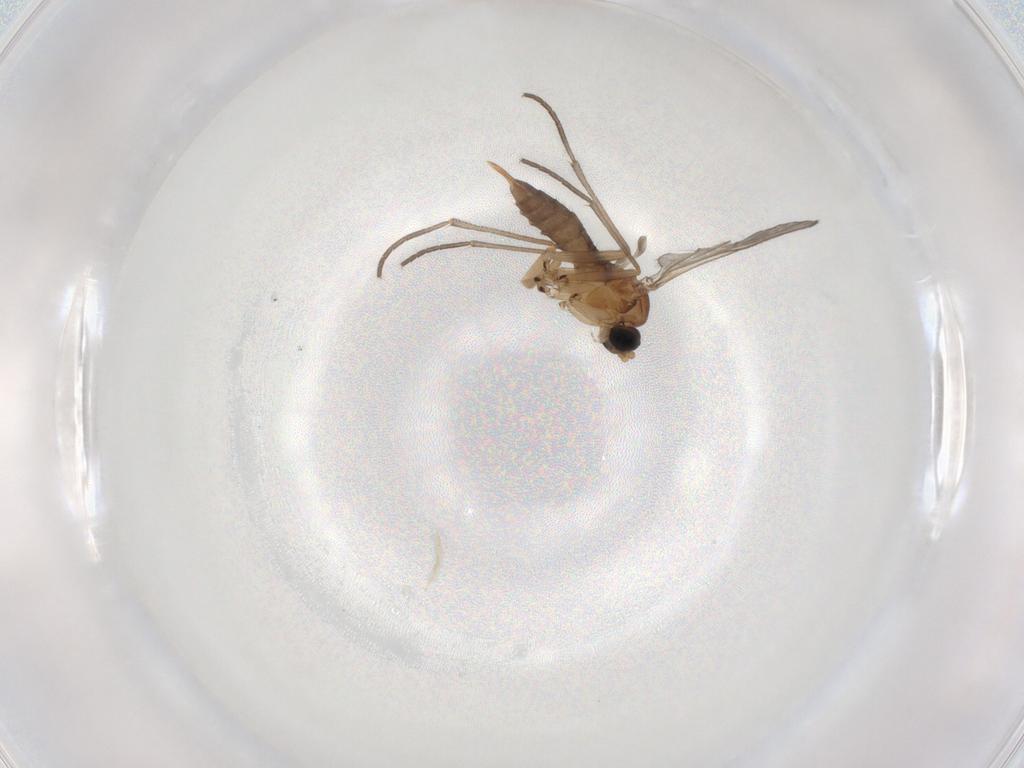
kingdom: Animalia
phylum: Arthropoda
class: Insecta
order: Diptera
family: Sciaridae
